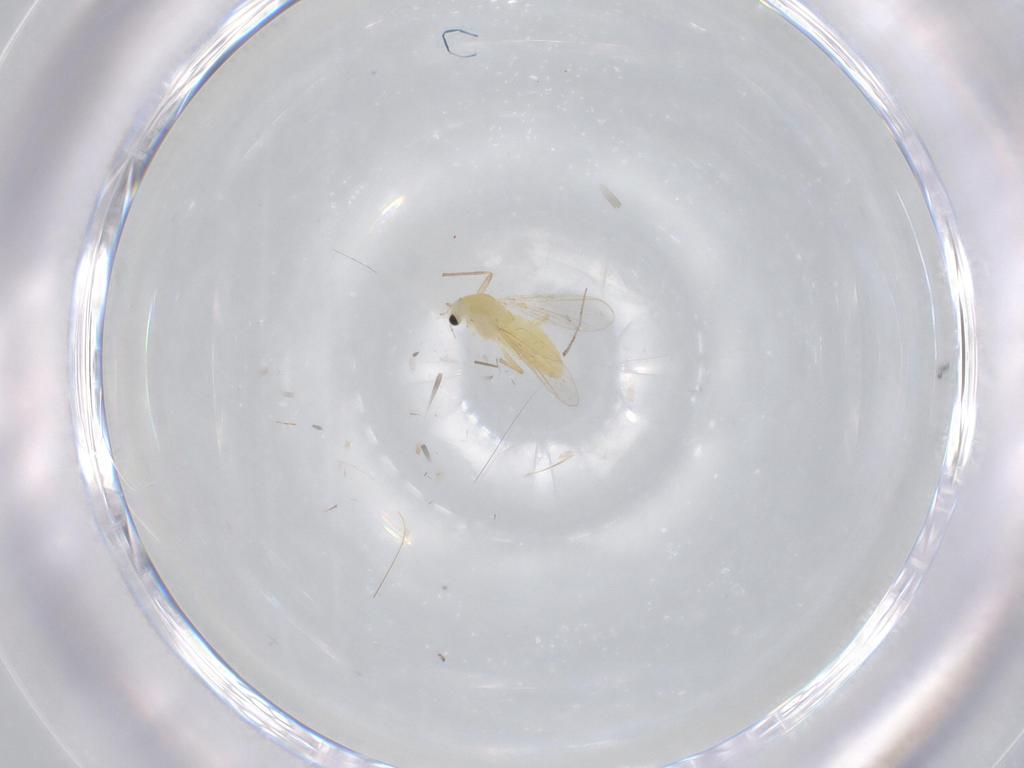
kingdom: Animalia
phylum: Arthropoda
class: Insecta
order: Diptera
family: Chironomidae
